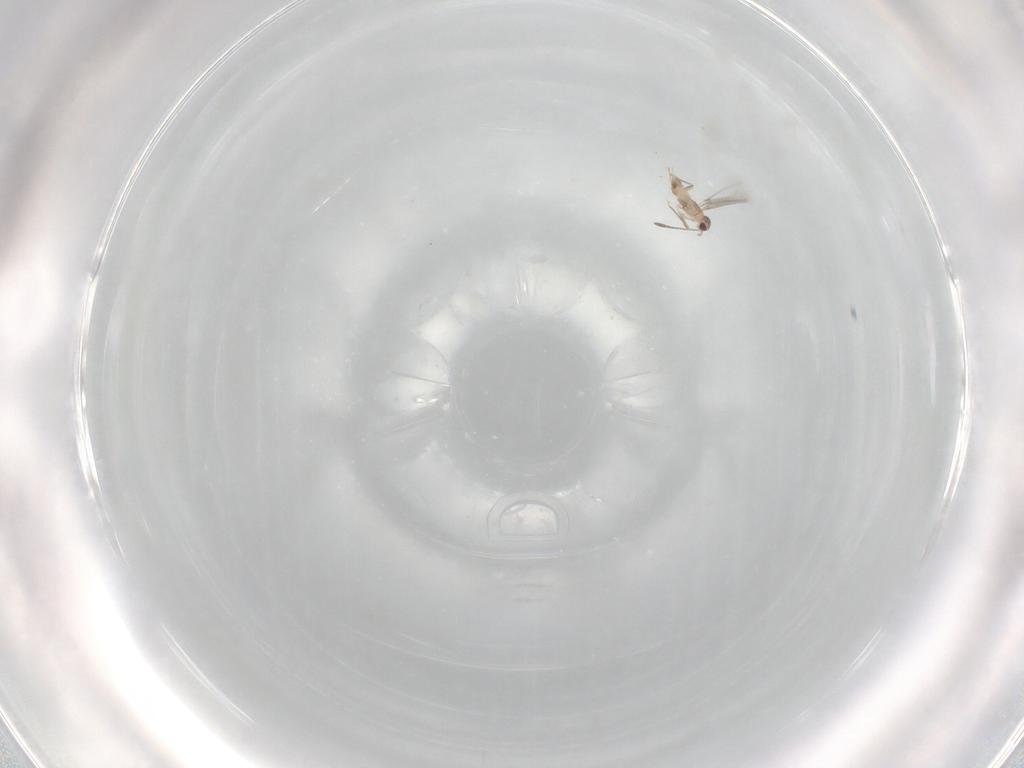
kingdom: Animalia
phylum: Arthropoda
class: Insecta
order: Hymenoptera
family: Mymaridae
